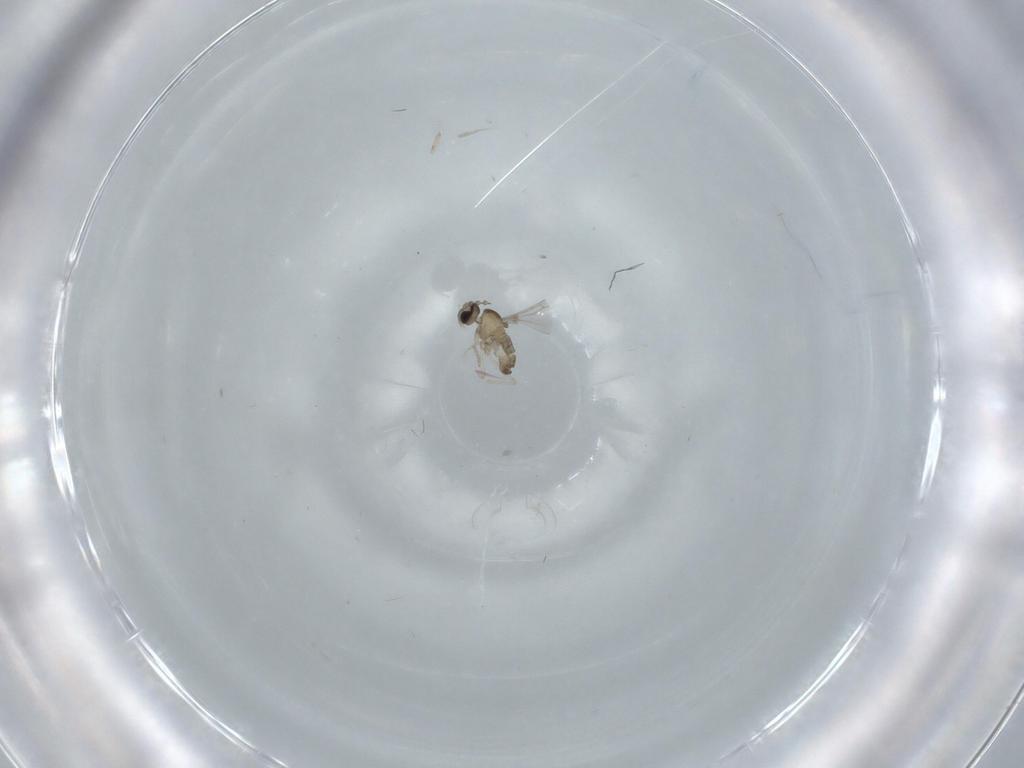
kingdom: Animalia
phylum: Arthropoda
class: Insecta
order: Diptera
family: Cecidomyiidae
